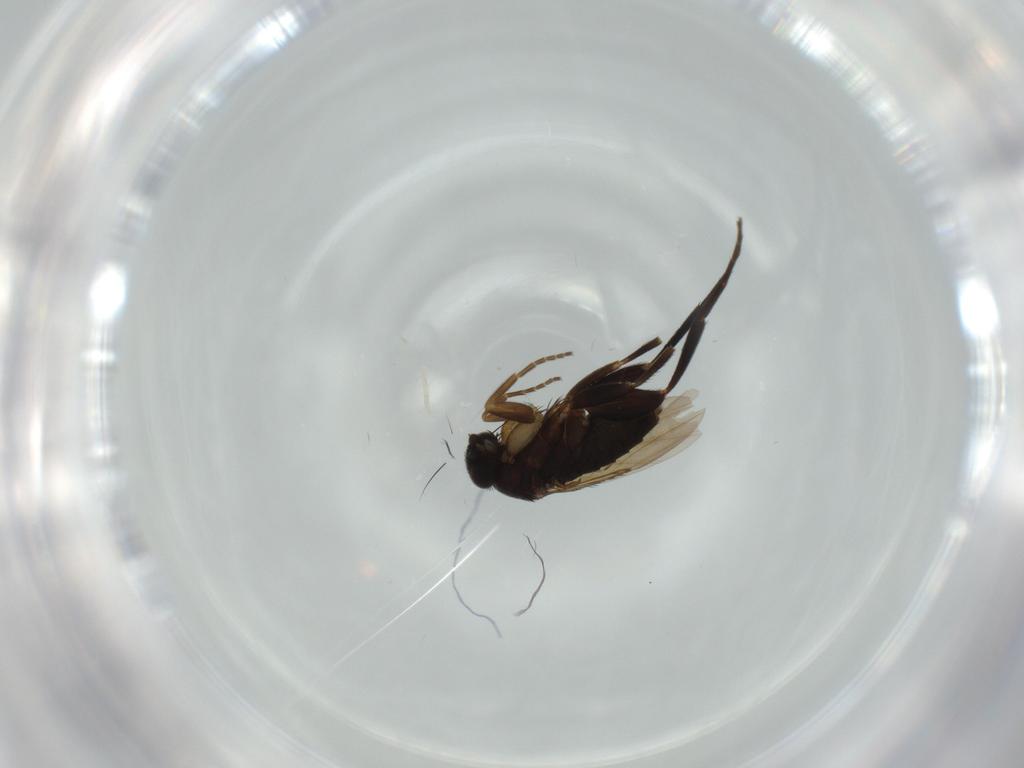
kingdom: Animalia
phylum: Arthropoda
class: Insecta
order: Diptera
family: Phoridae
